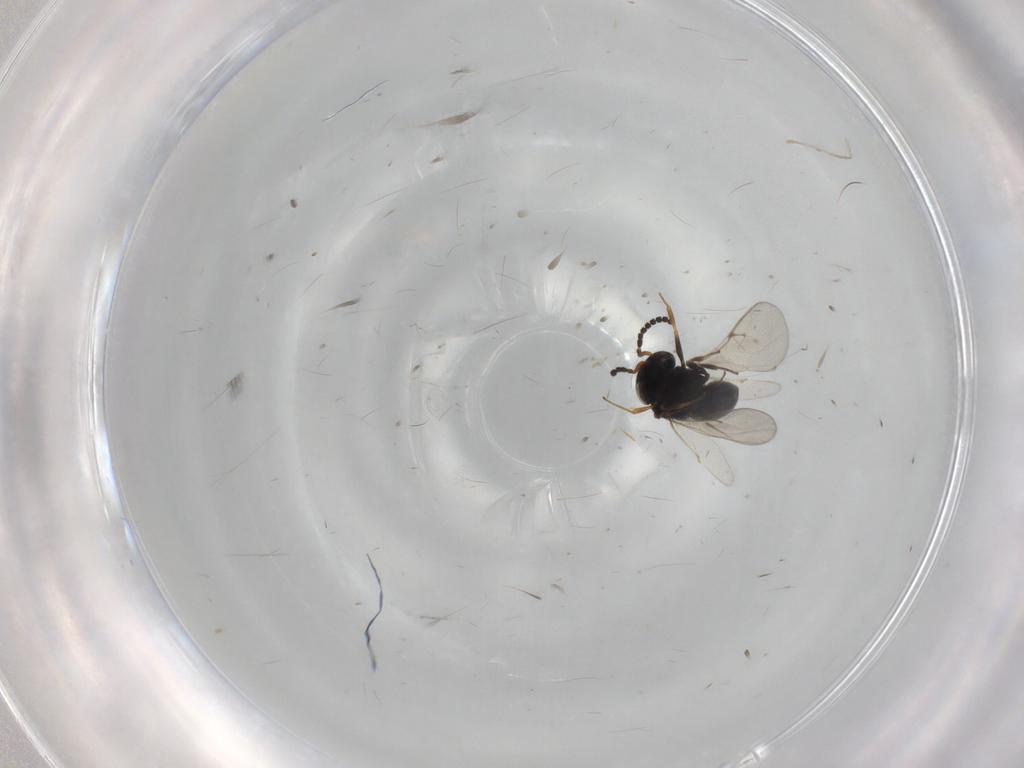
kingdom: Animalia
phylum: Arthropoda
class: Insecta
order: Hymenoptera
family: Scelionidae
